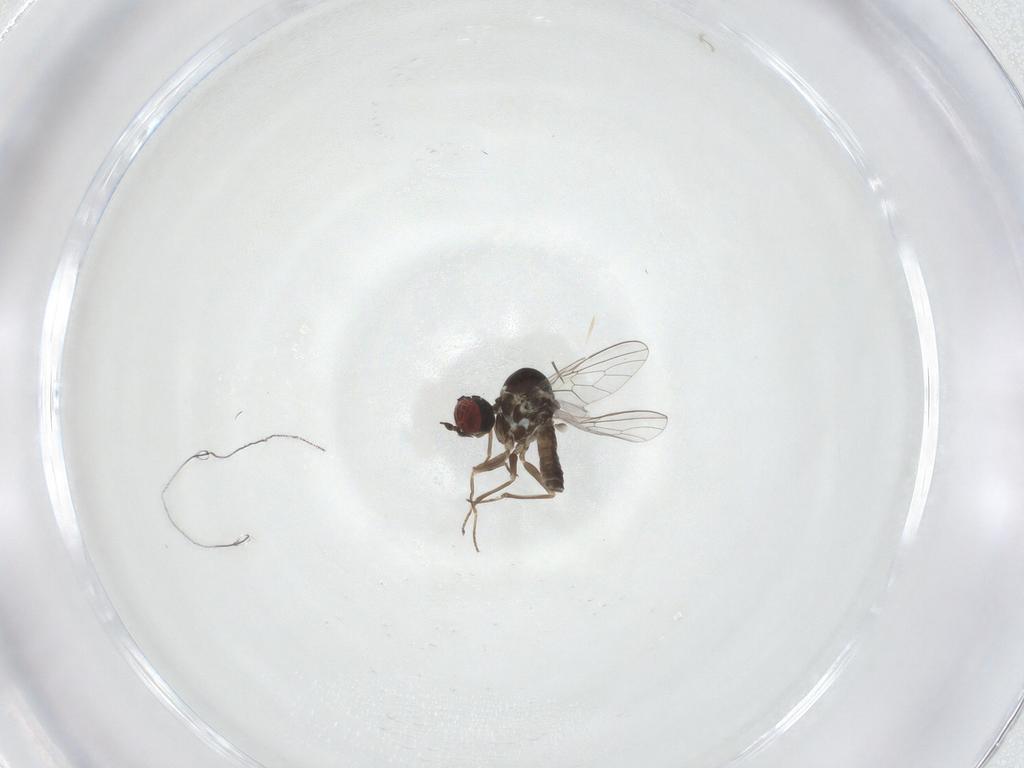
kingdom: Animalia
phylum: Arthropoda
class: Insecta
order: Diptera
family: Mythicomyiidae
